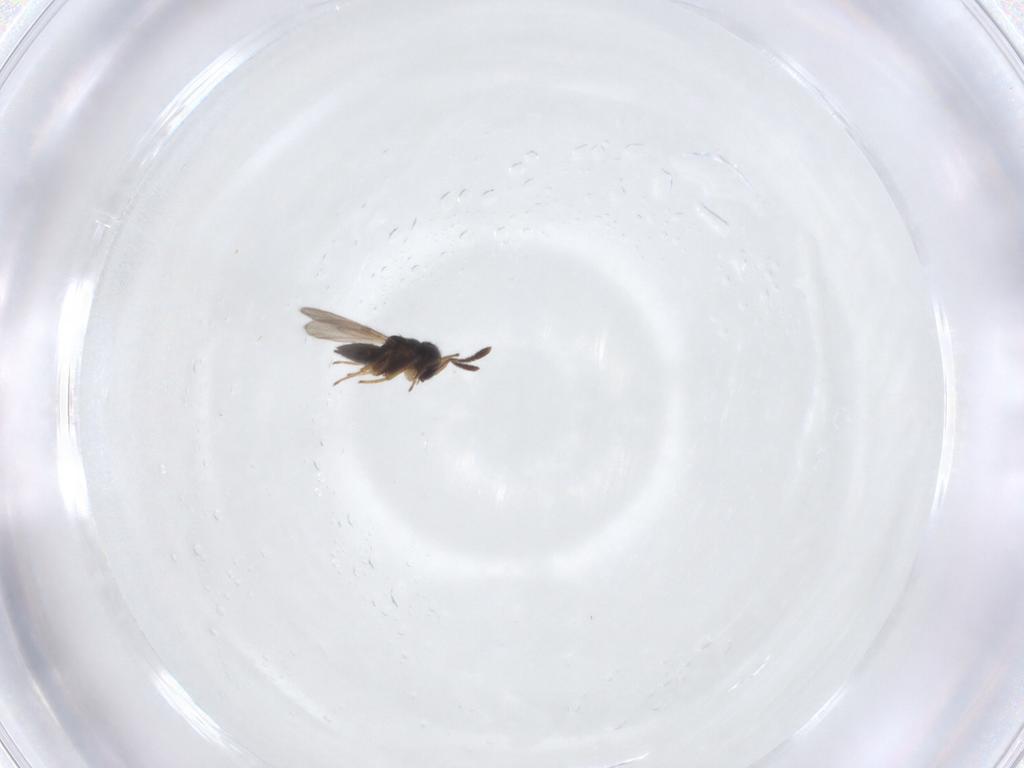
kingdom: Animalia
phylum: Arthropoda
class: Insecta
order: Hymenoptera
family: Encyrtidae
